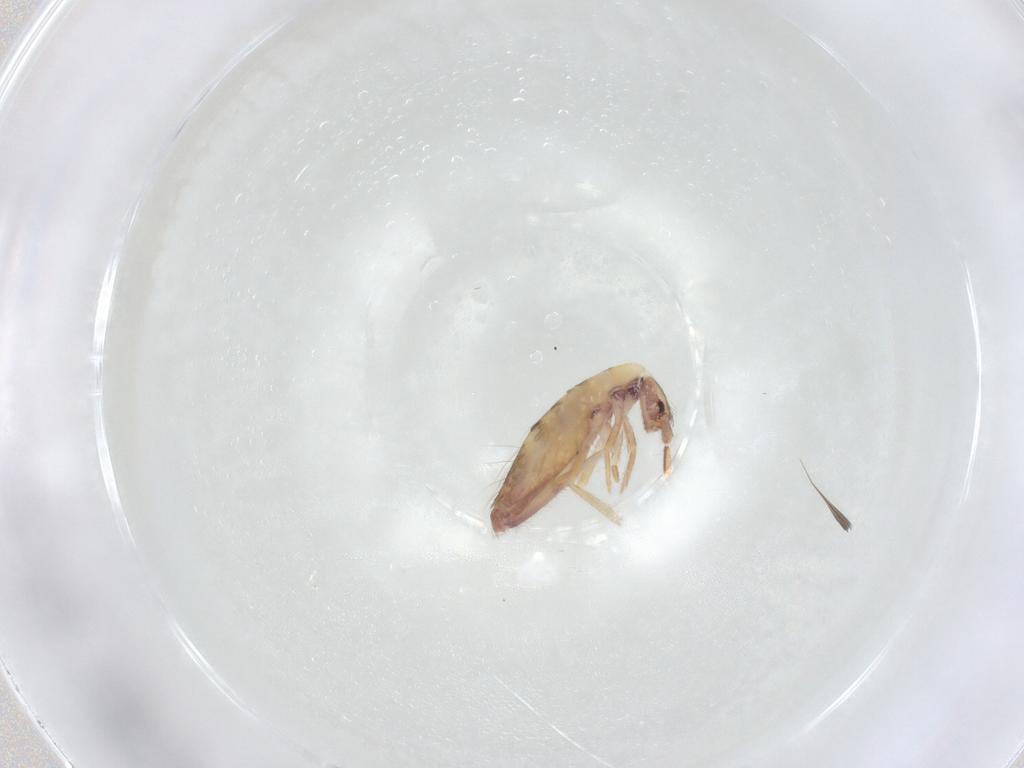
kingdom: Animalia
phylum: Arthropoda
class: Collembola
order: Entomobryomorpha
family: Entomobryidae
